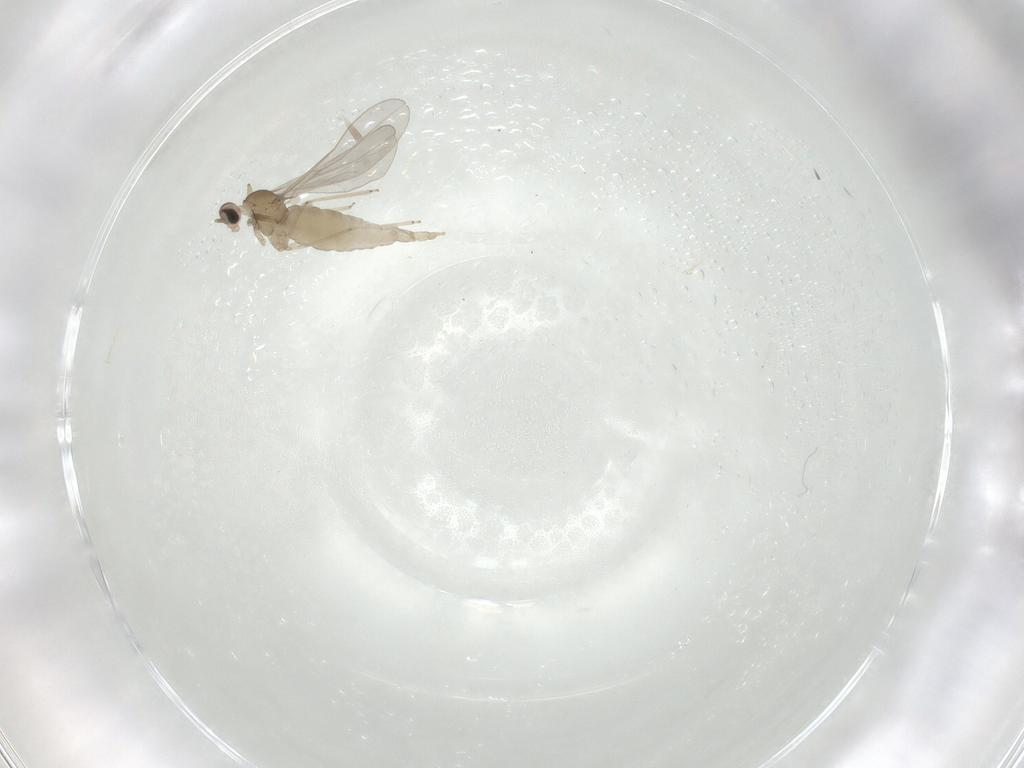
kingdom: Animalia
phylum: Arthropoda
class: Insecta
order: Diptera
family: Cecidomyiidae
